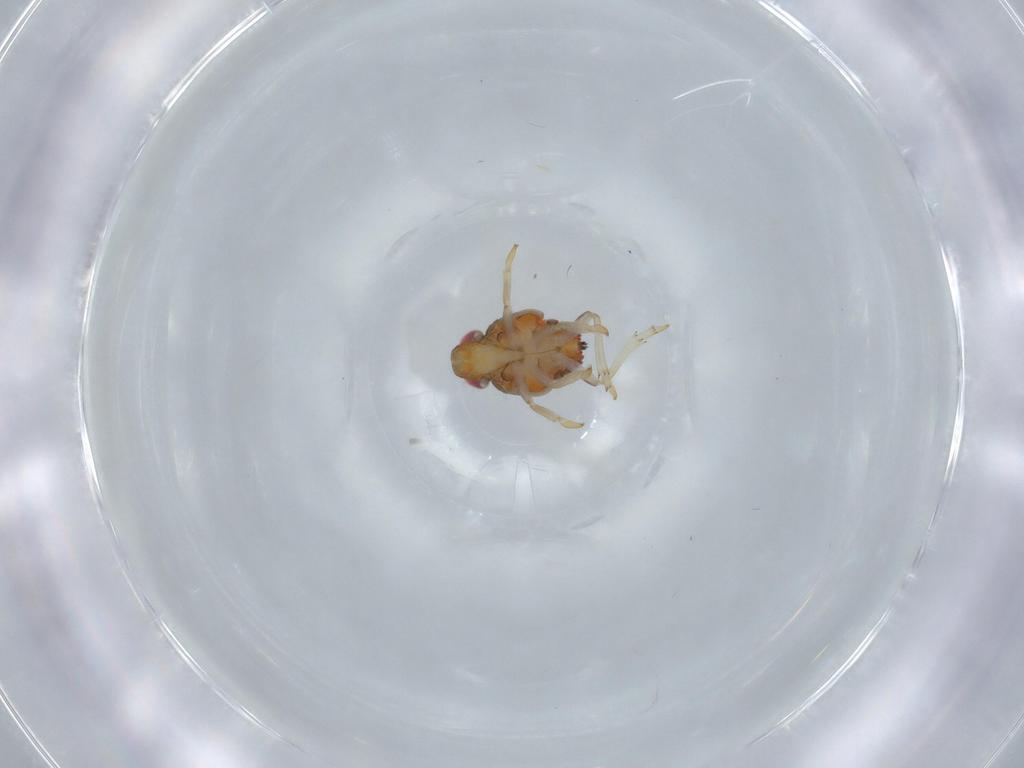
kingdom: Animalia
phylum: Arthropoda
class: Insecta
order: Hemiptera
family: Issidae
